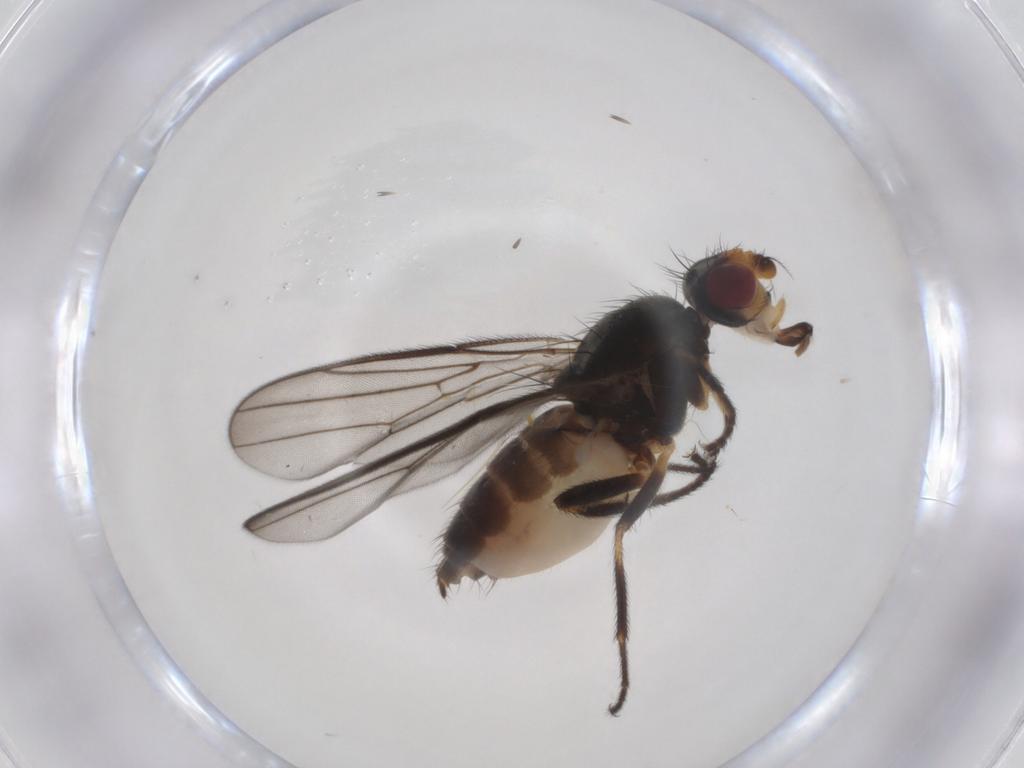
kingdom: Animalia
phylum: Arthropoda
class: Insecta
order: Diptera
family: Chloropidae
